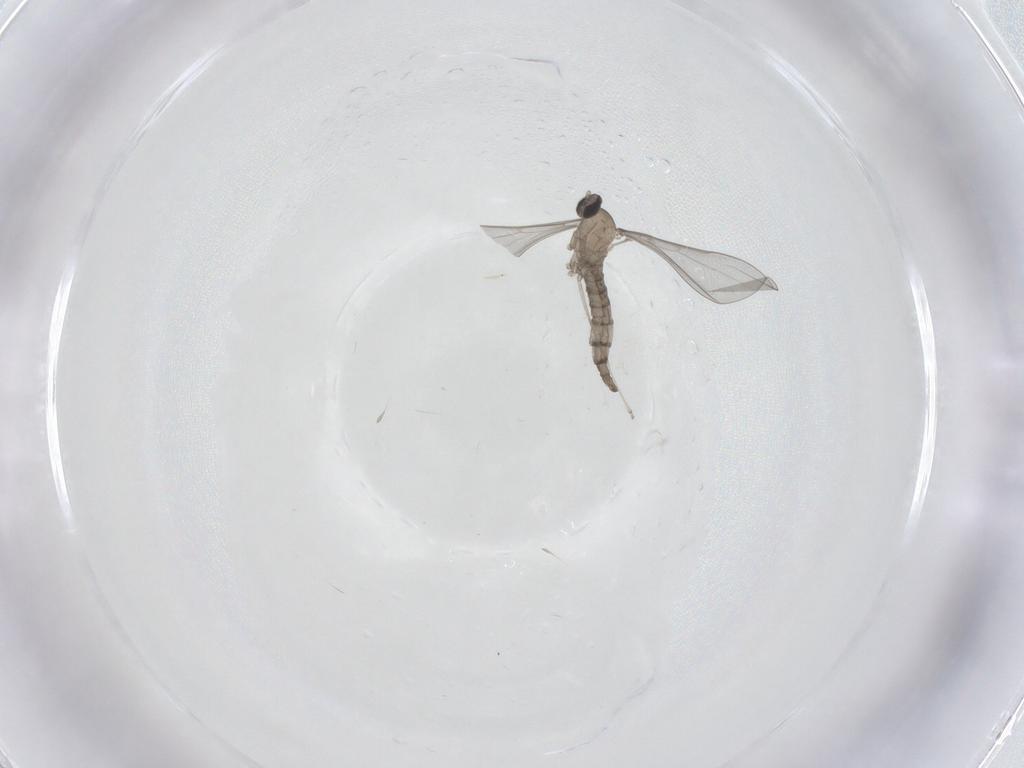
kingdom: Animalia
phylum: Arthropoda
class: Insecta
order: Diptera
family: Cecidomyiidae
